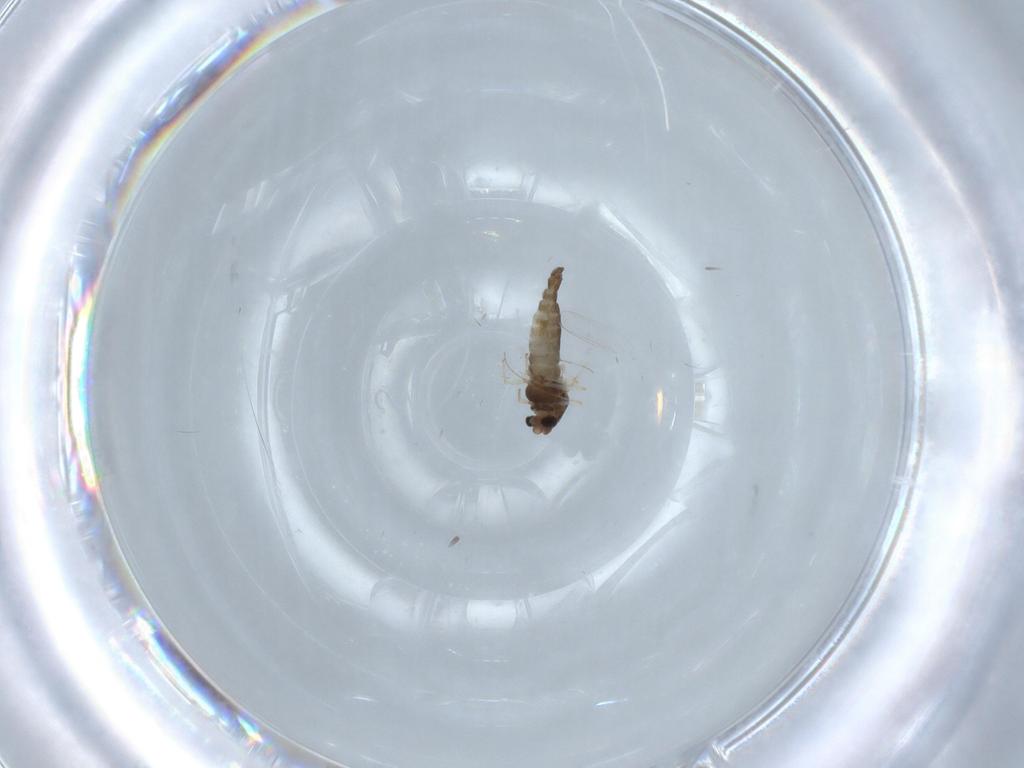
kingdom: Animalia
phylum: Arthropoda
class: Insecta
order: Diptera
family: Chironomidae
